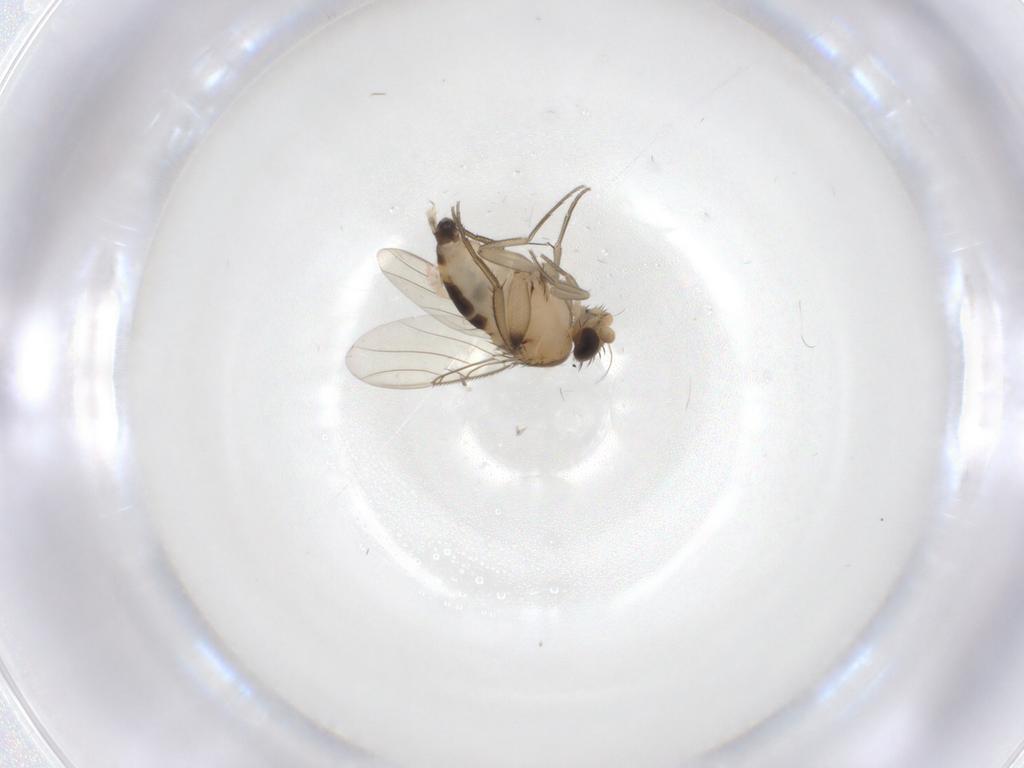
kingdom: Animalia
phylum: Arthropoda
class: Insecta
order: Diptera
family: Phoridae
